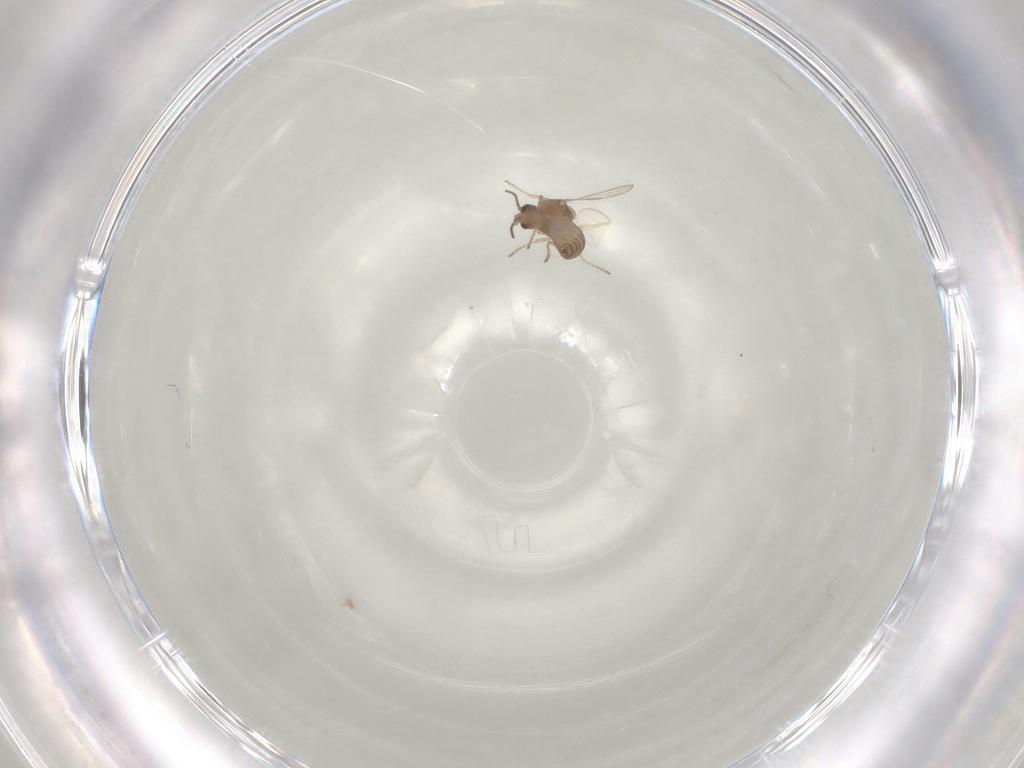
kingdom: Animalia
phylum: Arthropoda
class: Insecta
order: Diptera
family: Ceratopogonidae
